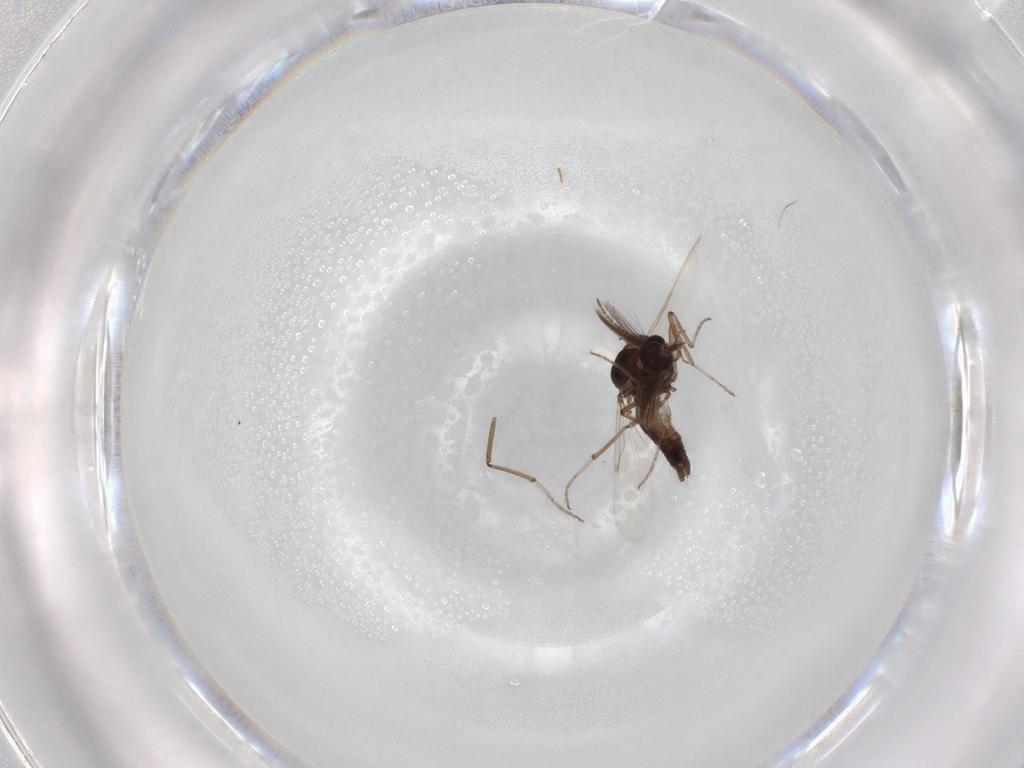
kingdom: Animalia
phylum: Arthropoda
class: Insecta
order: Diptera
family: Chironomidae
